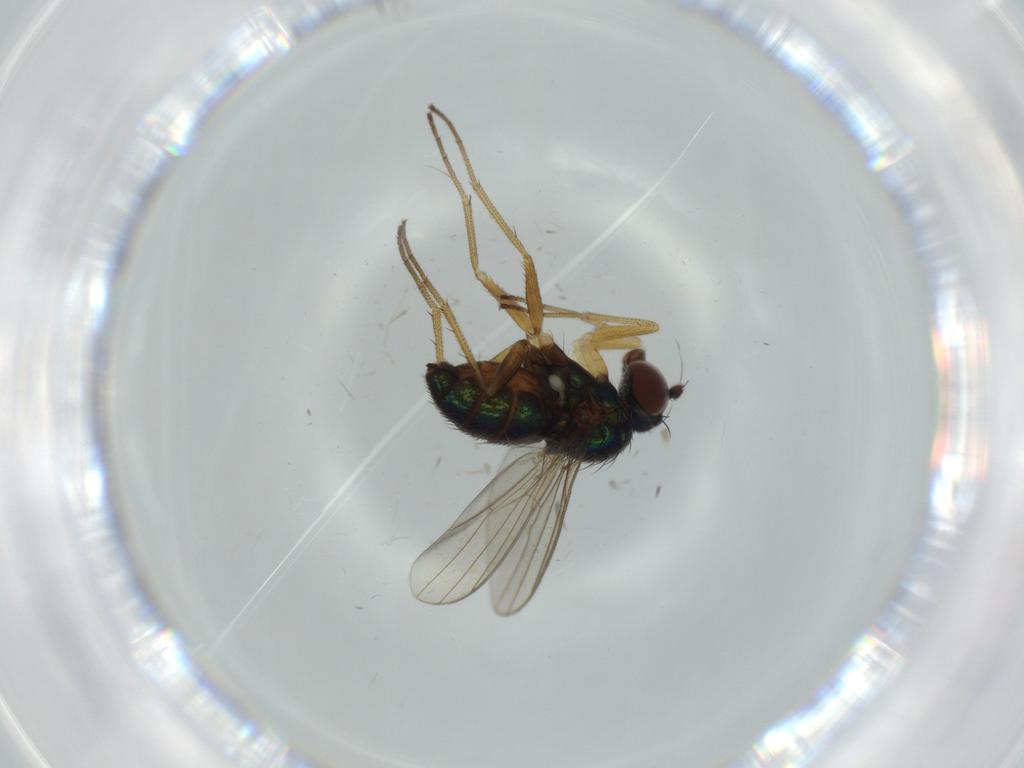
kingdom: Animalia
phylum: Arthropoda
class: Insecta
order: Diptera
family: Dolichopodidae
